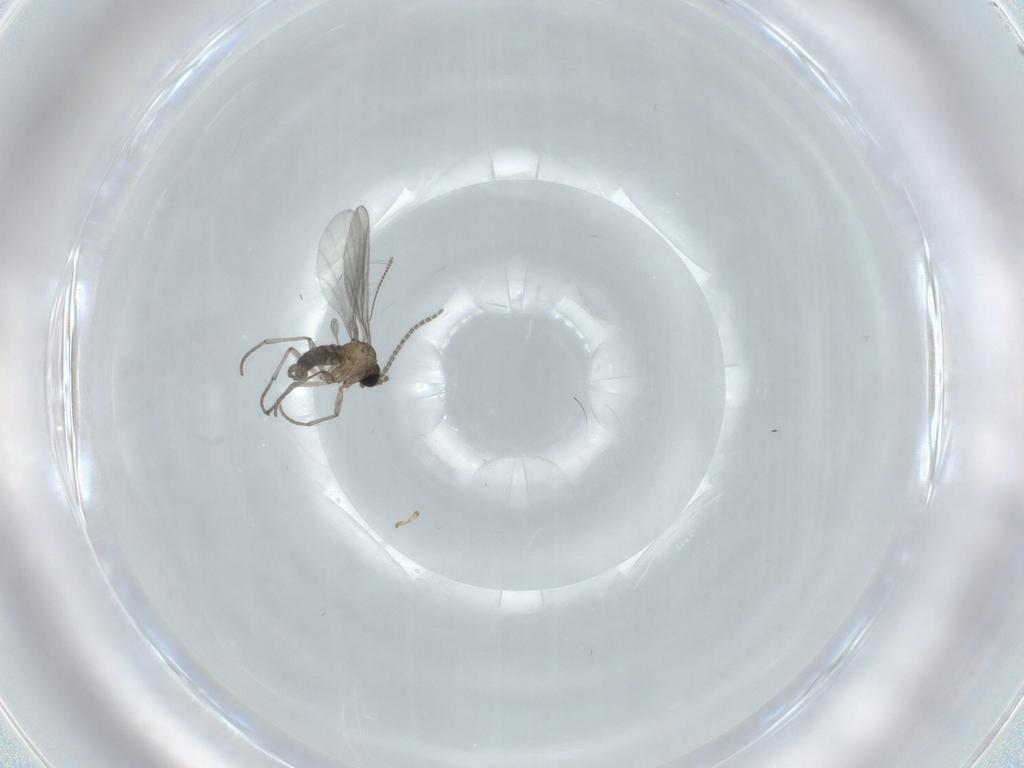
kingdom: Animalia
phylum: Arthropoda
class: Insecta
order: Diptera
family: Sciaridae
